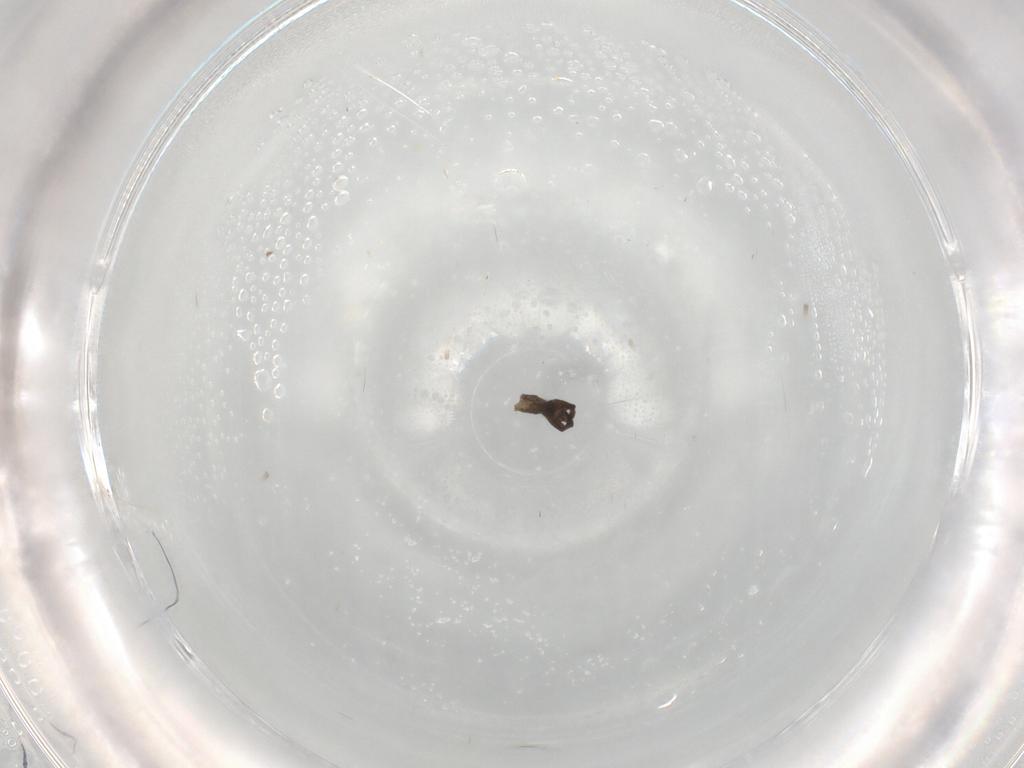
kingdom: Animalia
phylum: Arthropoda
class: Insecta
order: Diptera
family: Sciaridae
